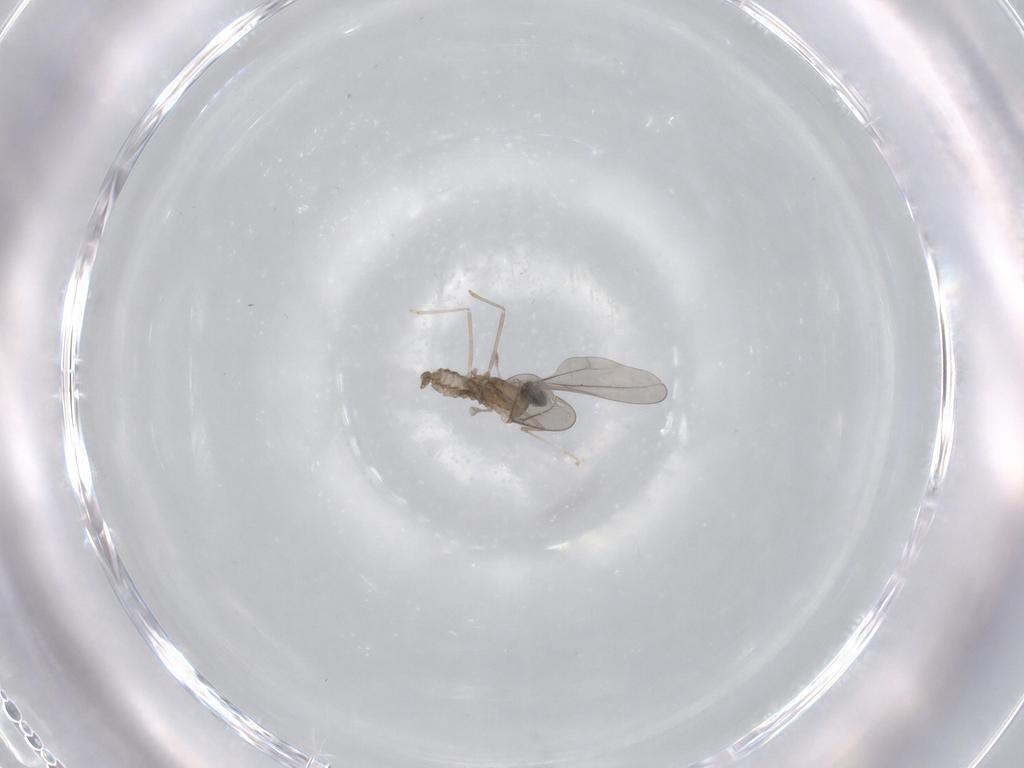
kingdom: Animalia
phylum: Arthropoda
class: Insecta
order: Diptera
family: Cecidomyiidae
